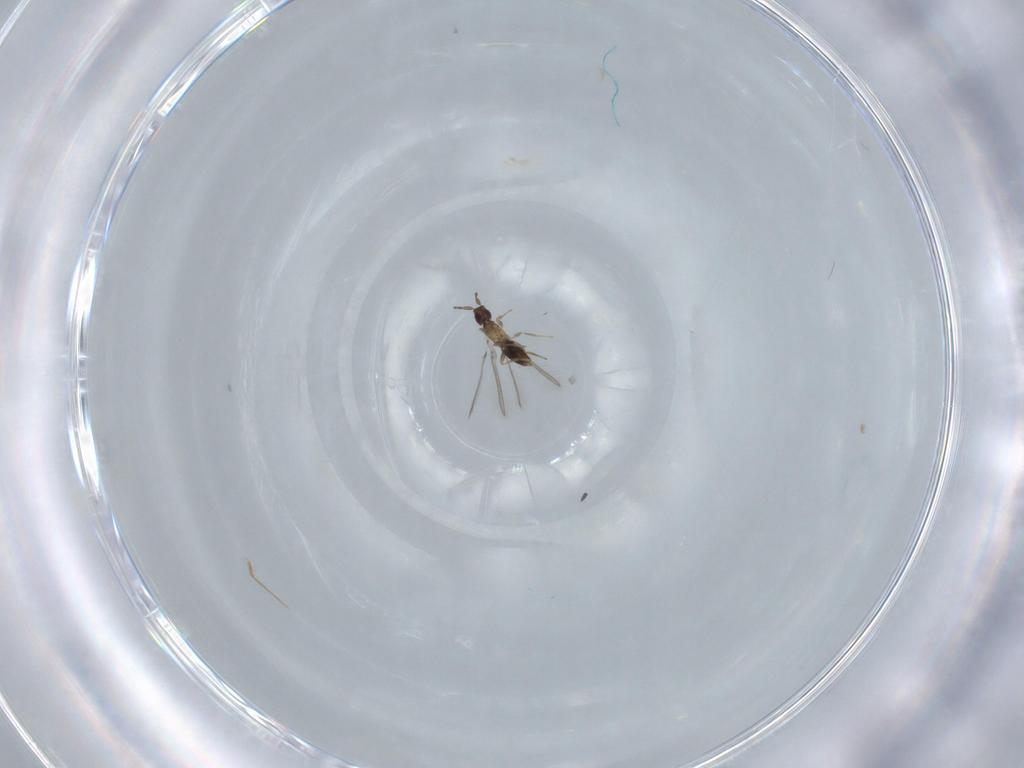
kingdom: Animalia
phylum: Arthropoda
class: Insecta
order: Hymenoptera
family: Mymaridae
